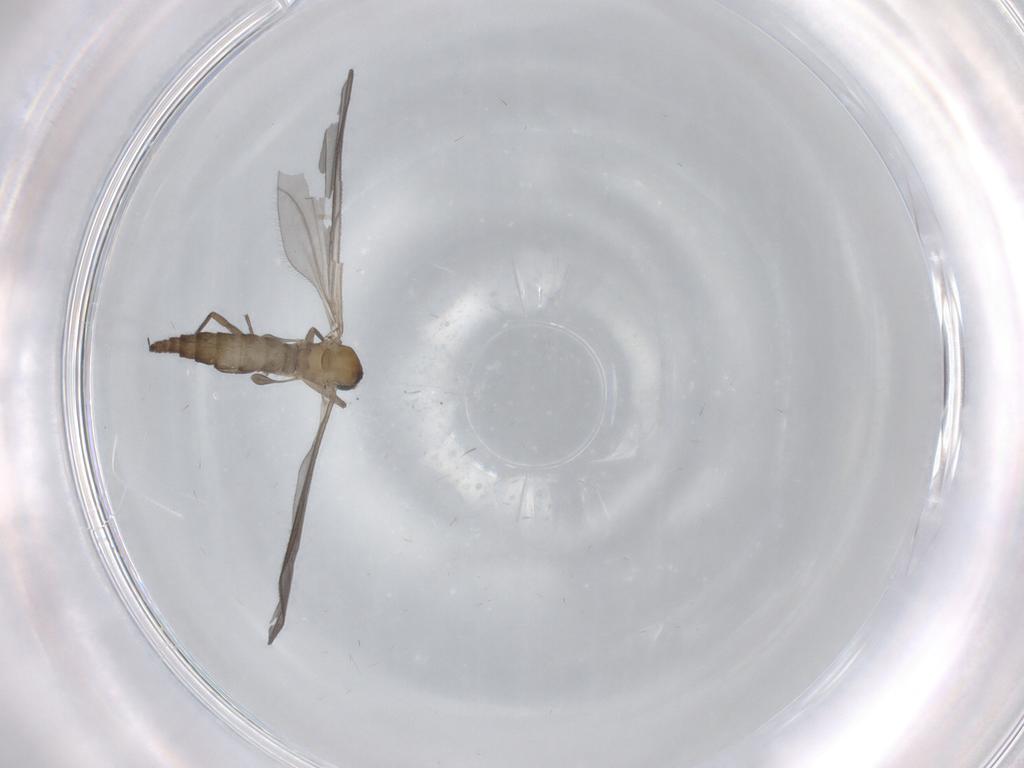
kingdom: Animalia
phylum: Arthropoda
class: Insecta
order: Diptera
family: Sciaridae
